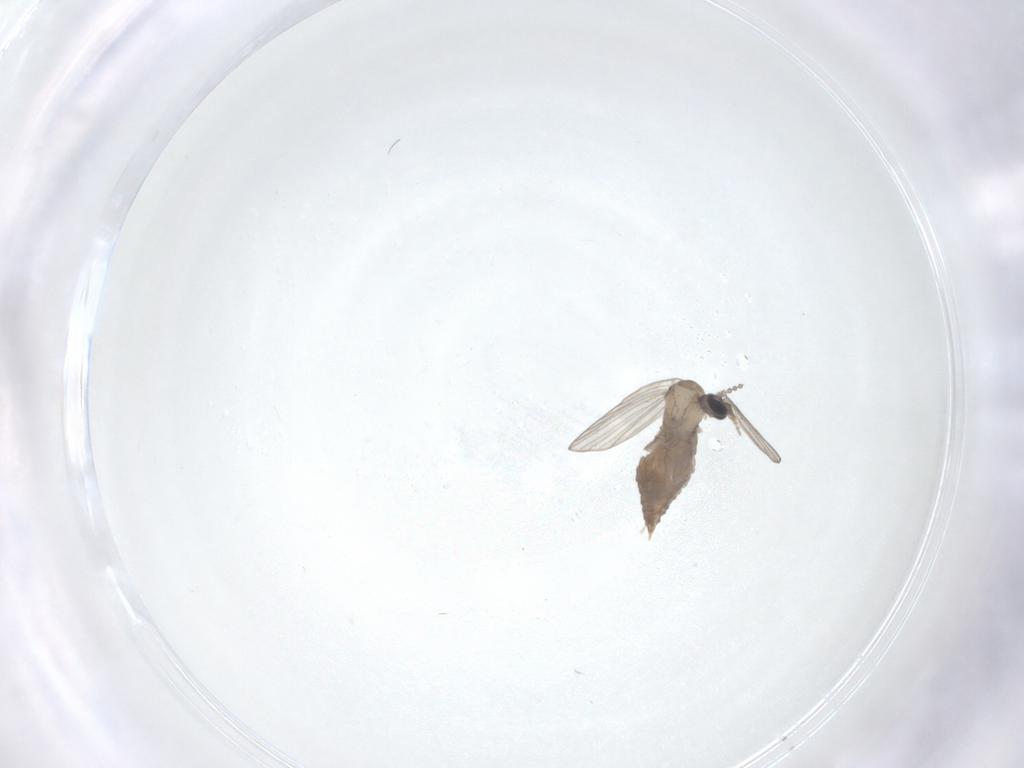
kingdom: Animalia
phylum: Arthropoda
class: Insecta
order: Diptera
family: Psychodidae
